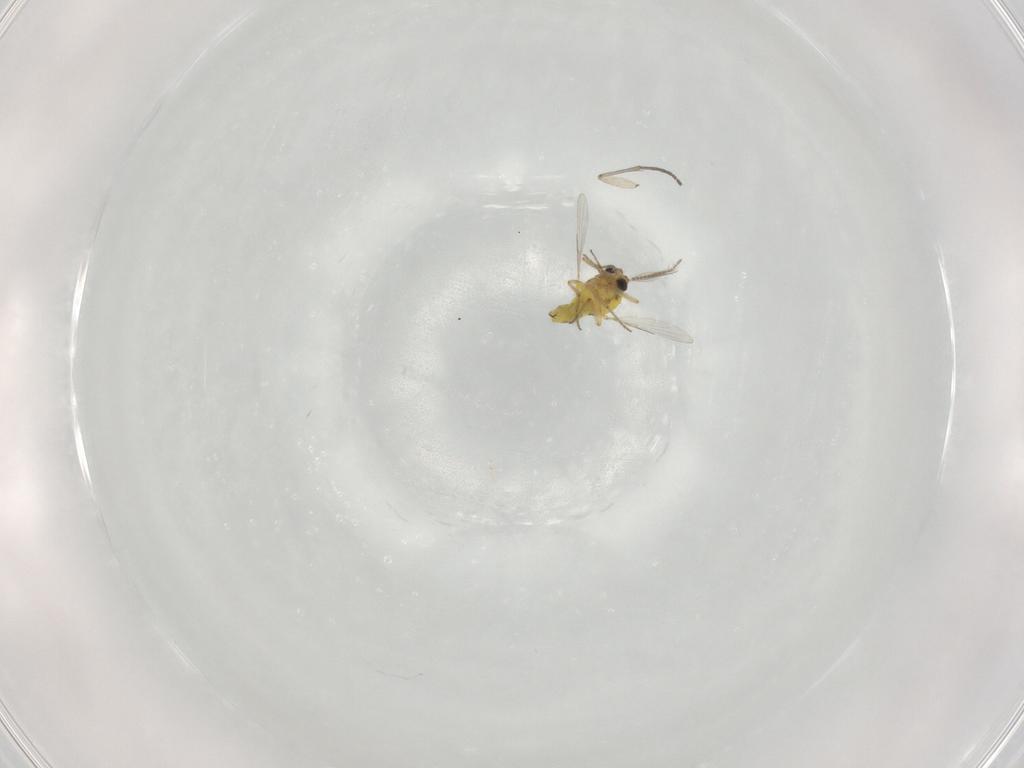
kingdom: Animalia
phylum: Arthropoda
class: Insecta
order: Diptera
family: Ceratopogonidae
